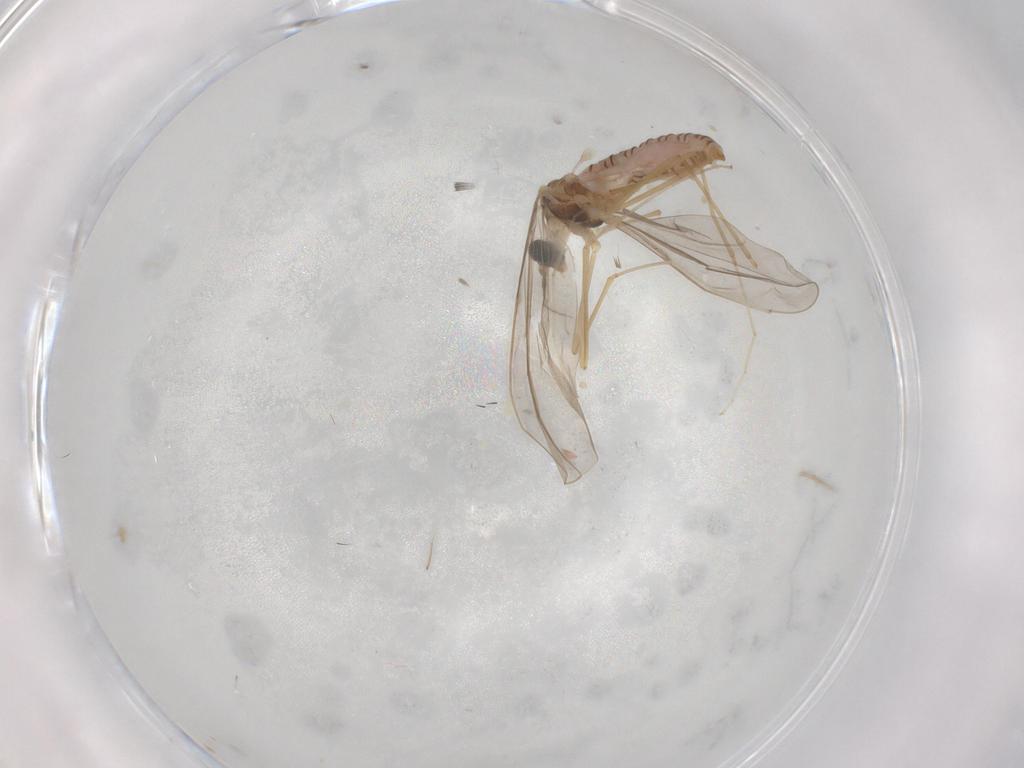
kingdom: Animalia
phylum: Arthropoda
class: Insecta
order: Diptera
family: Cecidomyiidae
